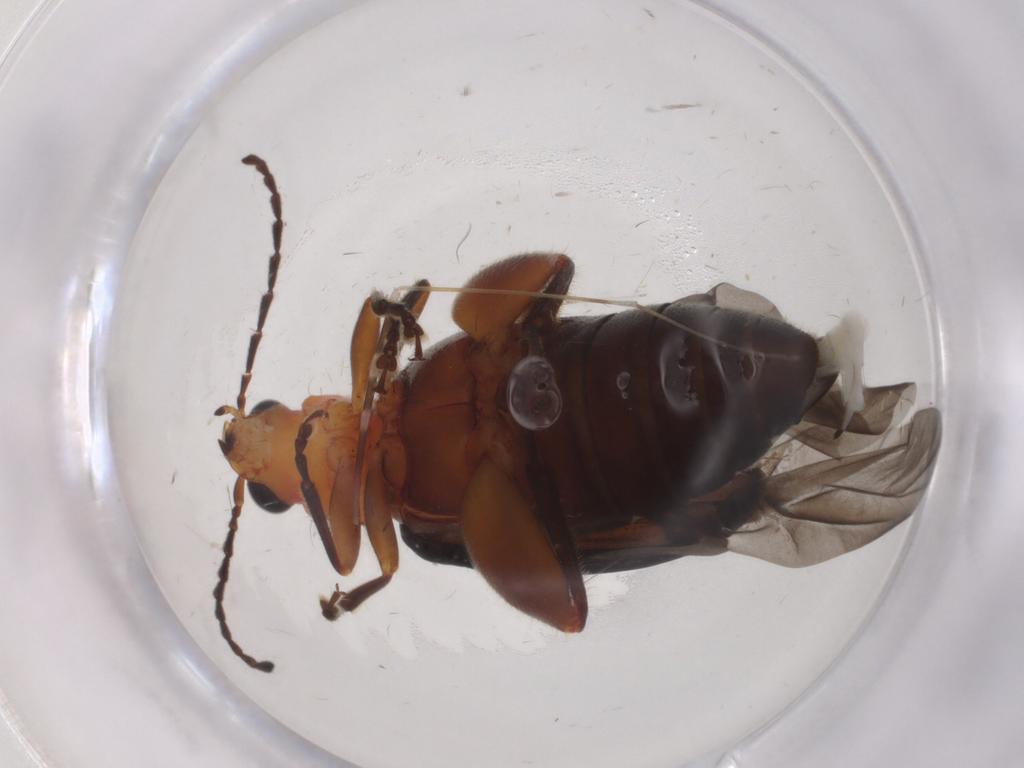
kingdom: Animalia
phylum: Arthropoda
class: Insecta
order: Coleoptera
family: Chrysomelidae
